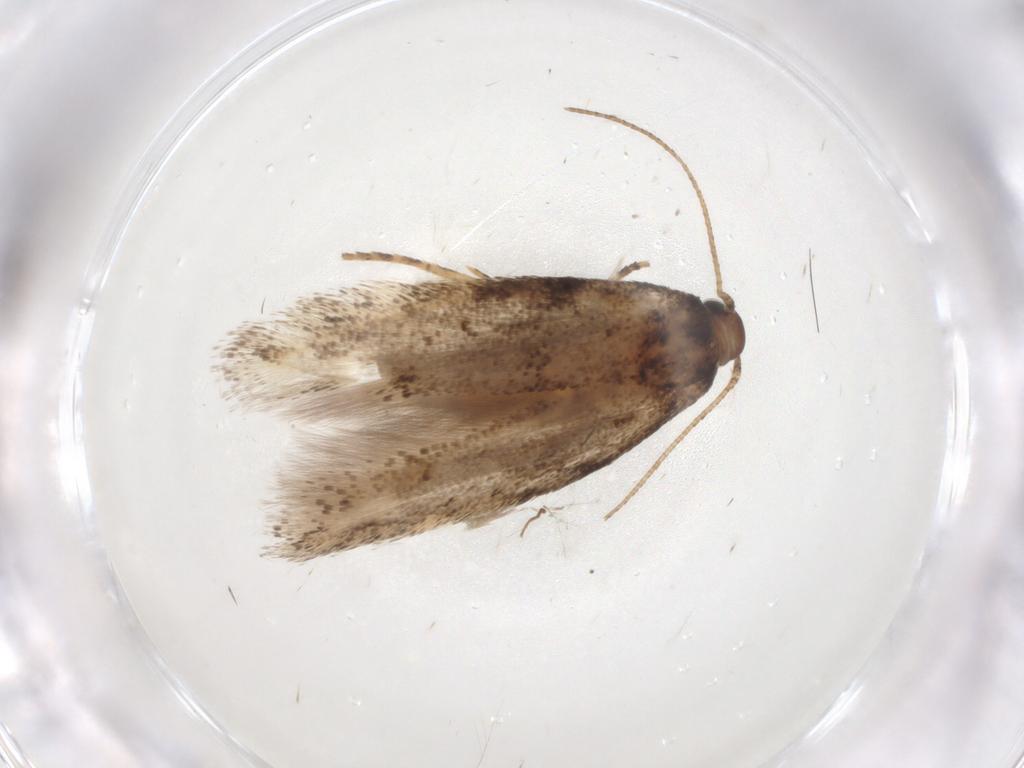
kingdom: Animalia
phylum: Arthropoda
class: Insecta
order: Lepidoptera
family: Gelechiidae
